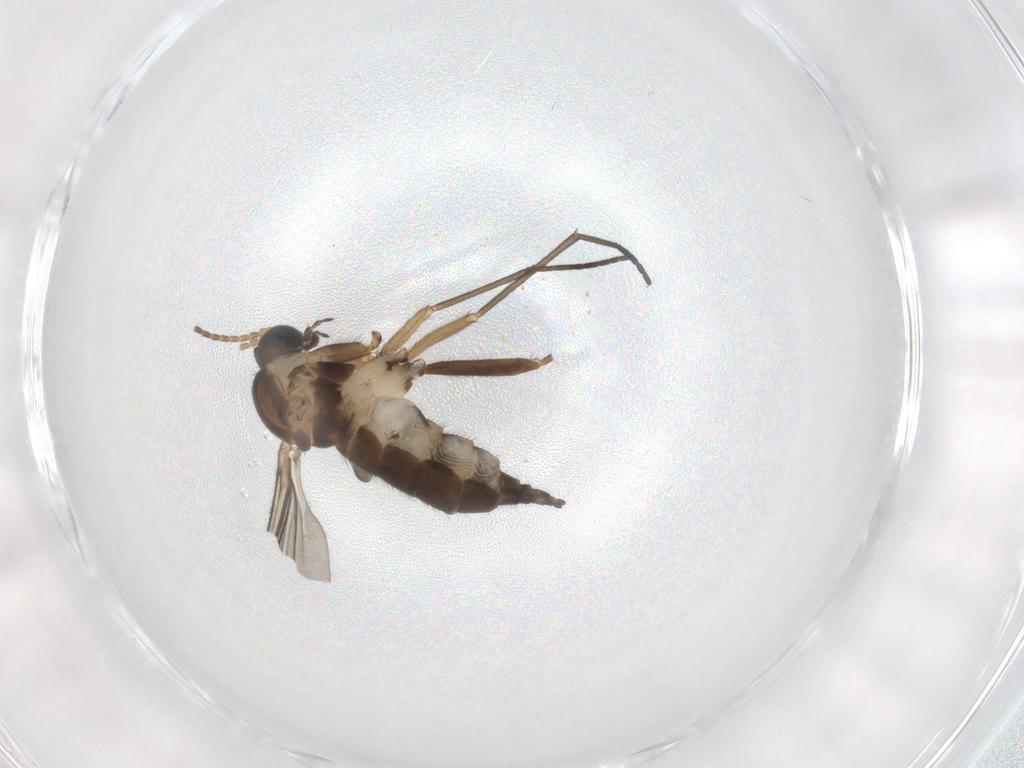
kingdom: Animalia
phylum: Arthropoda
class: Insecta
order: Diptera
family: Sciaridae
